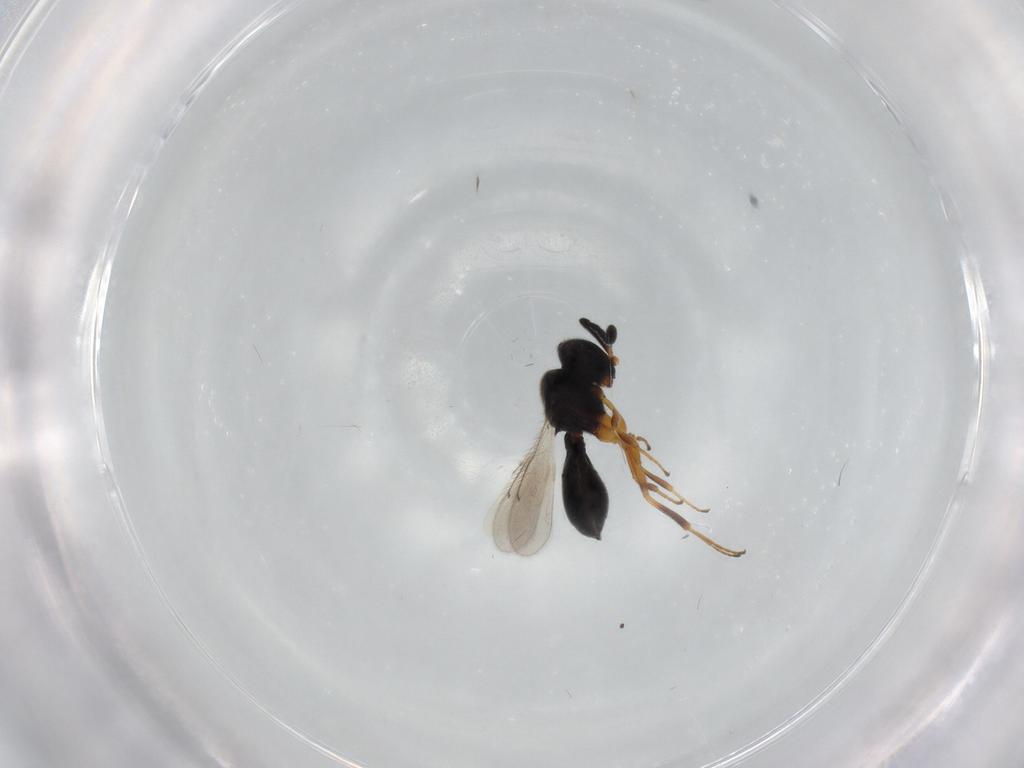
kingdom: Animalia
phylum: Arthropoda
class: Insecta
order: Hymenoptera
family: Scelionidae
